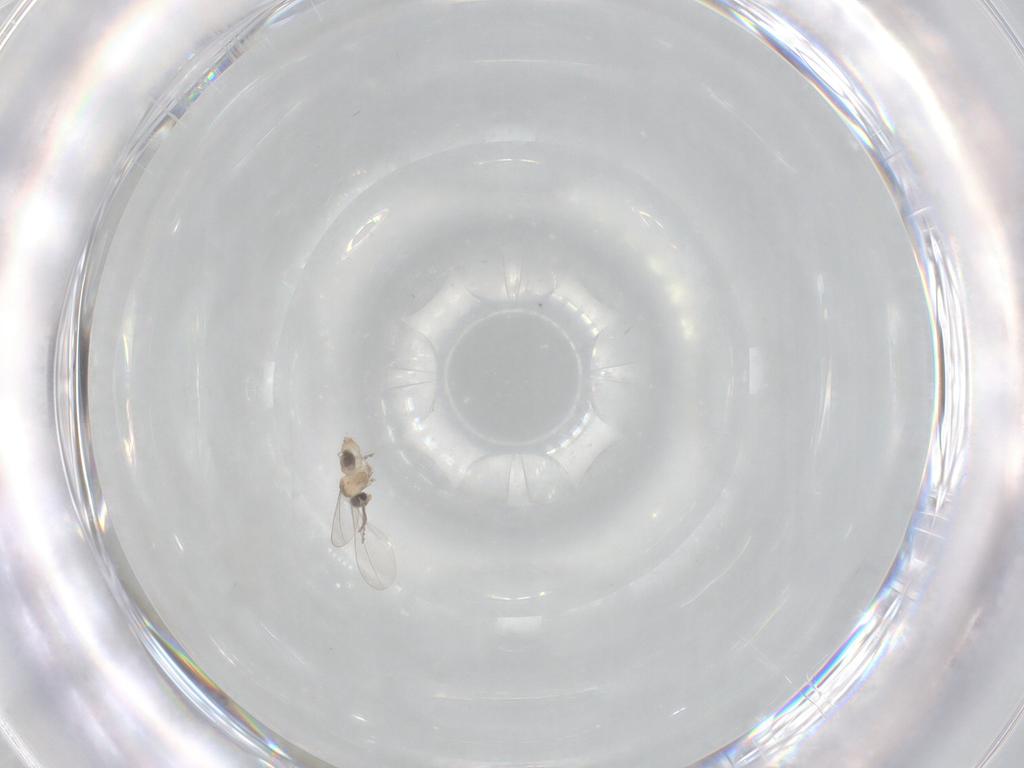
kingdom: Animalia
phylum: Arthropoda
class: Insecta
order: Diptera
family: Cecidomyiidae
